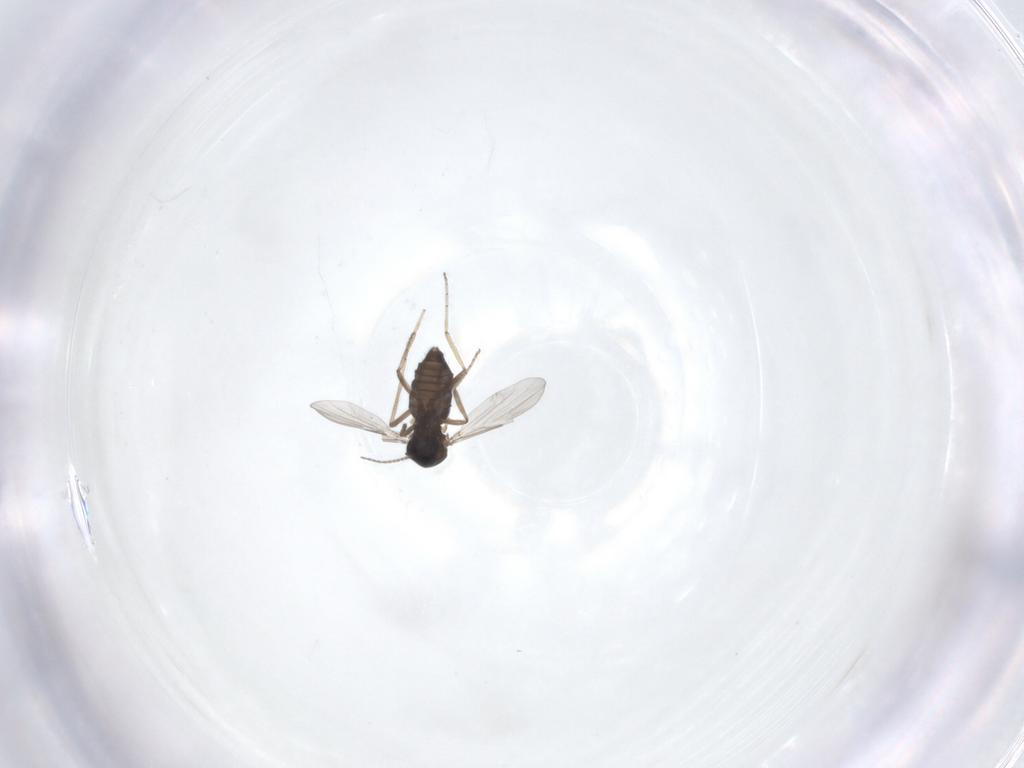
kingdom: Animalia
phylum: Arthropoda
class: Insecta
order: Diptera
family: Ceratopogonidae
